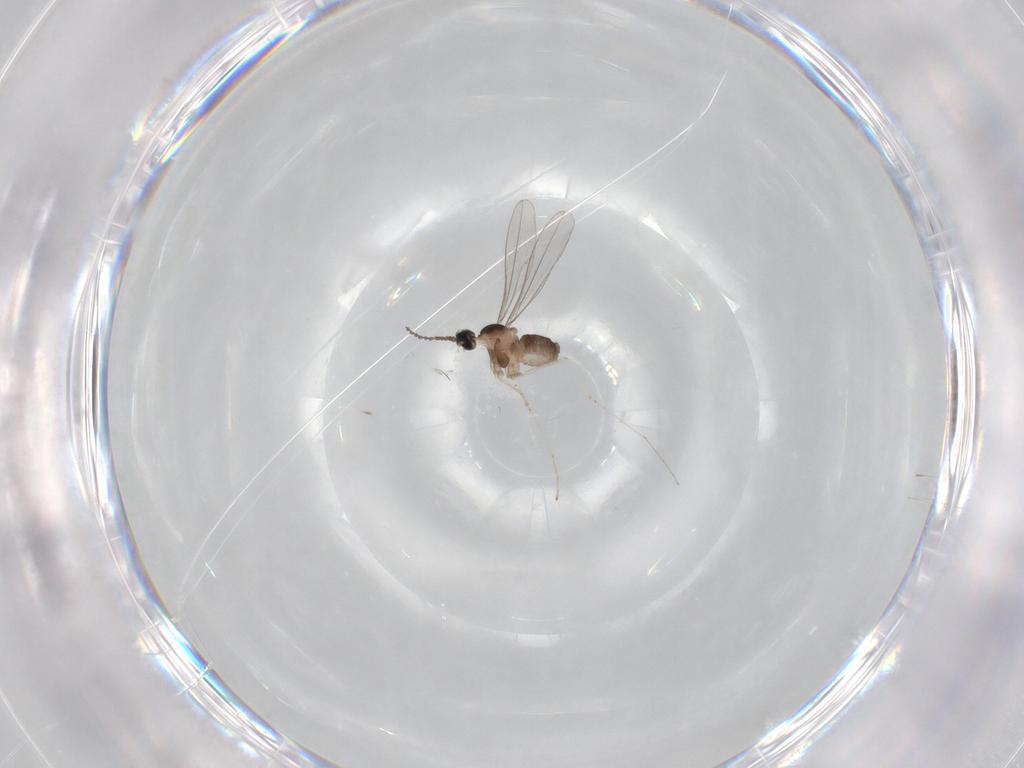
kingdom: Animalia
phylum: Arthropoda
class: Insecta
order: Diptera
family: Cecidomyiidae
